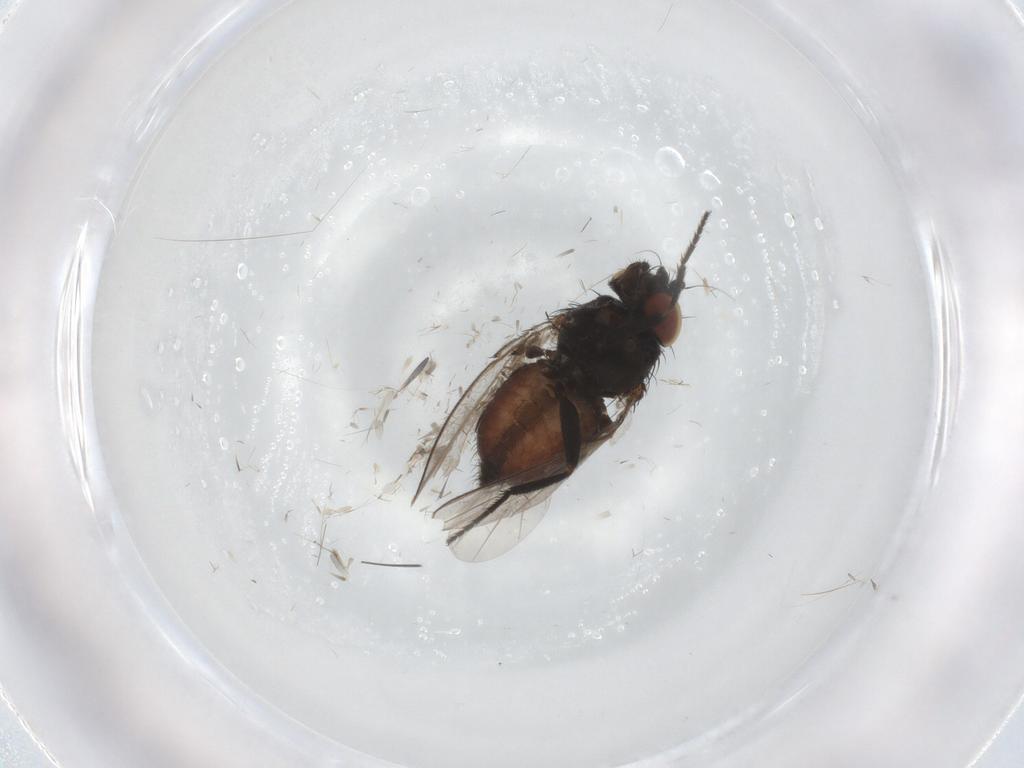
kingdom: Animalia
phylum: Arthropoda
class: Insecta
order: Diptera
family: Milichiidae
